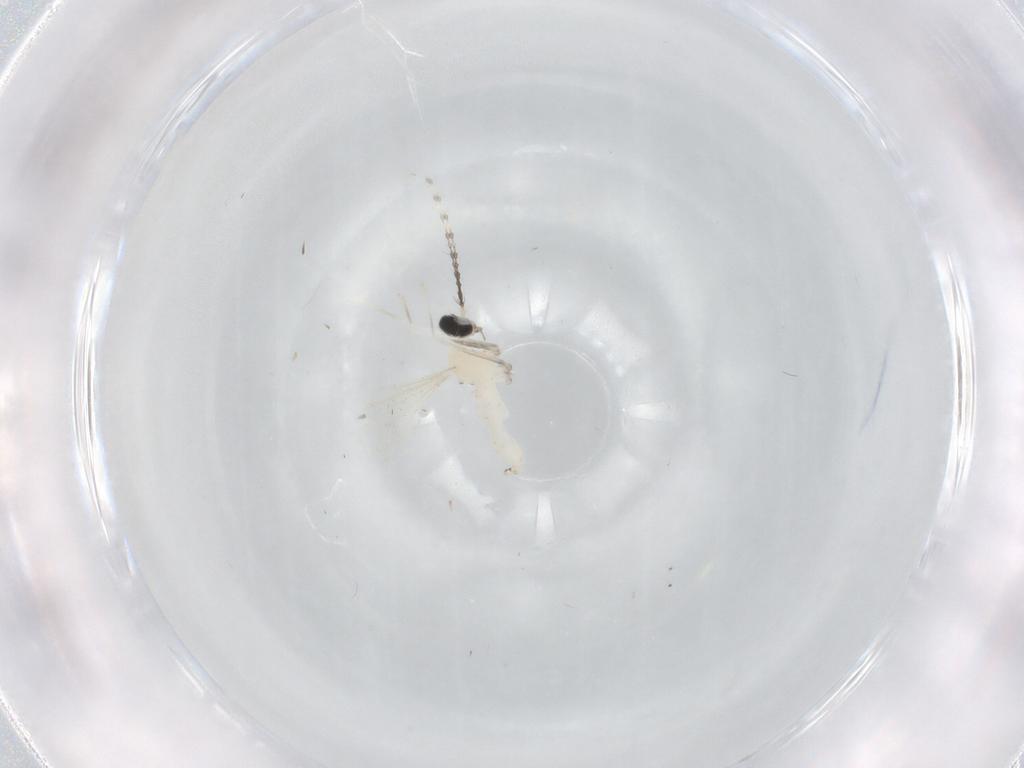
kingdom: Animalia
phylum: Arthropoda
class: Insecta
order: Diptera
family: Cecidomyiidae
